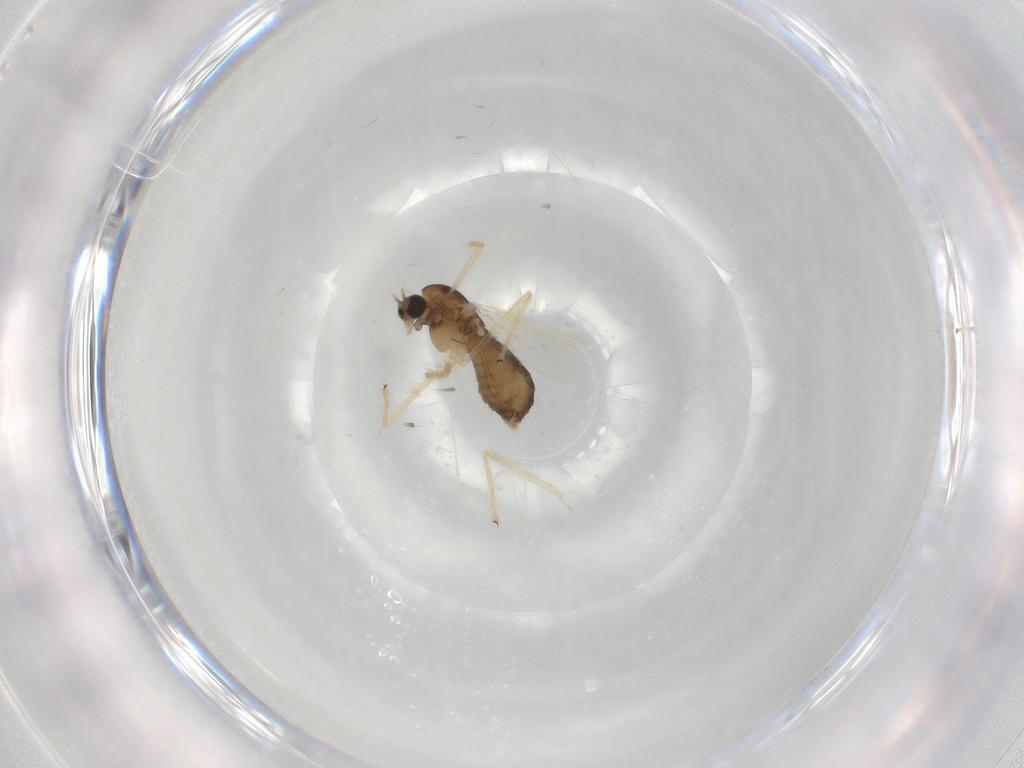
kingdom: Animalia
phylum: Arthropoda
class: Insecta
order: Diptera
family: Chironomidae
